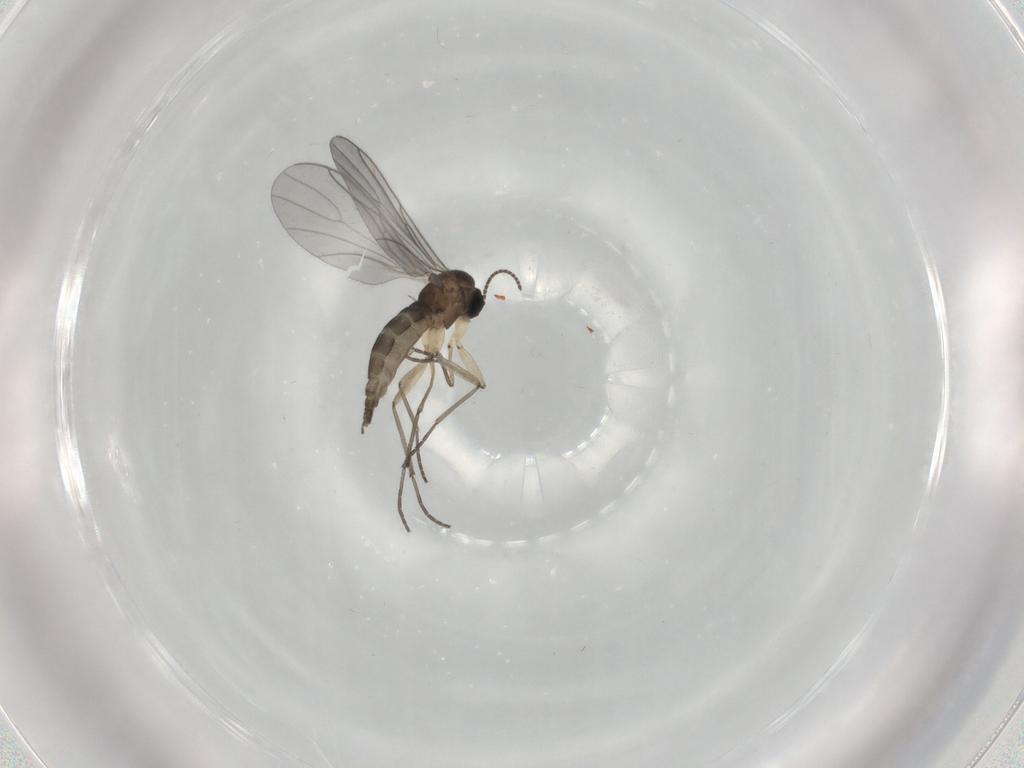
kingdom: Animalia
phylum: Arthropoda
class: Insecta
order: Diptera
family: Sciaridae
